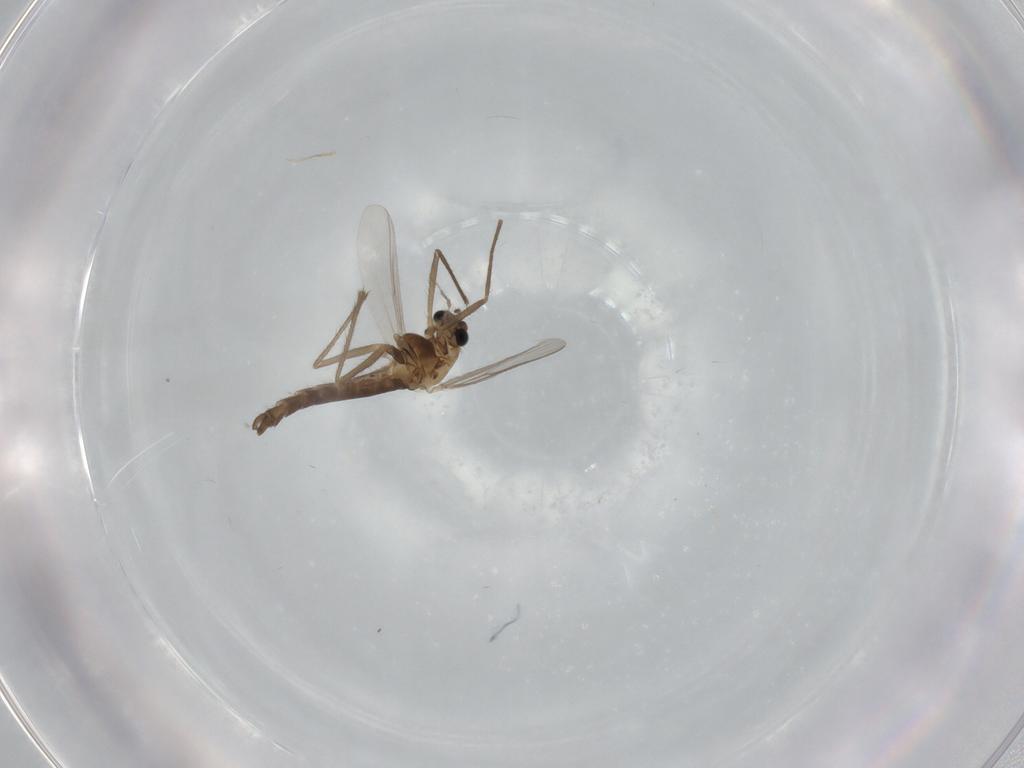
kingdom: Animalia
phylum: Arthropoda
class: Insecta
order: Diptera
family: Chironomidae
